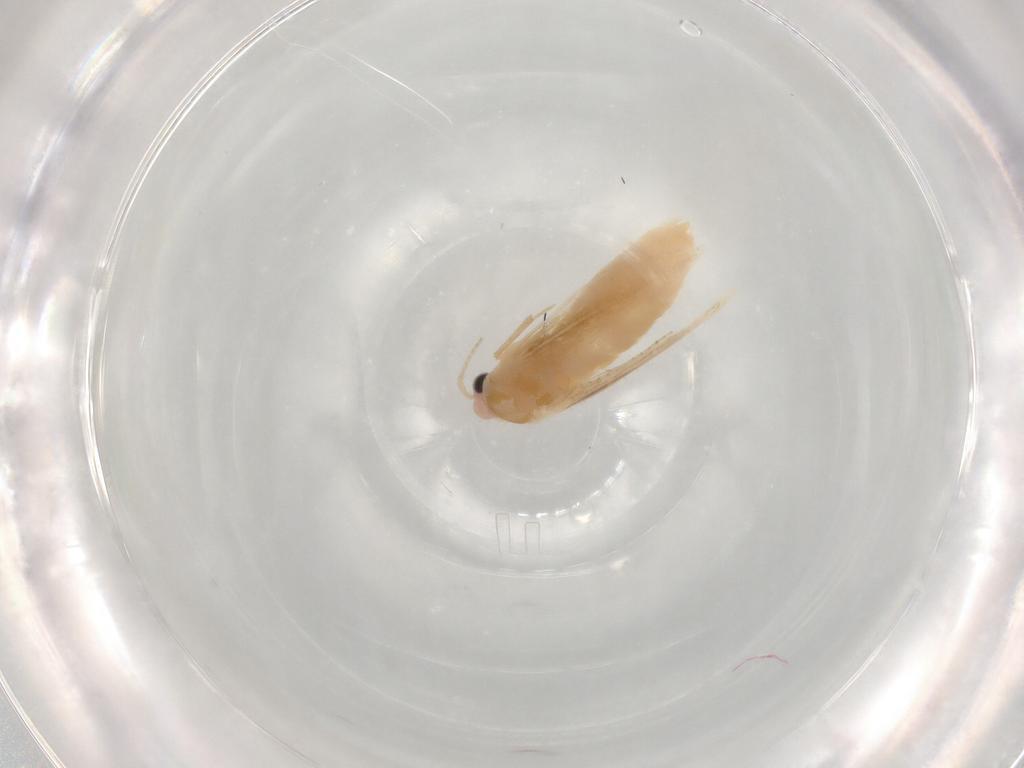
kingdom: Animalia
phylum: Arthropoda
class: Insecta
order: Lepidoptera
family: Bucculatricidae
